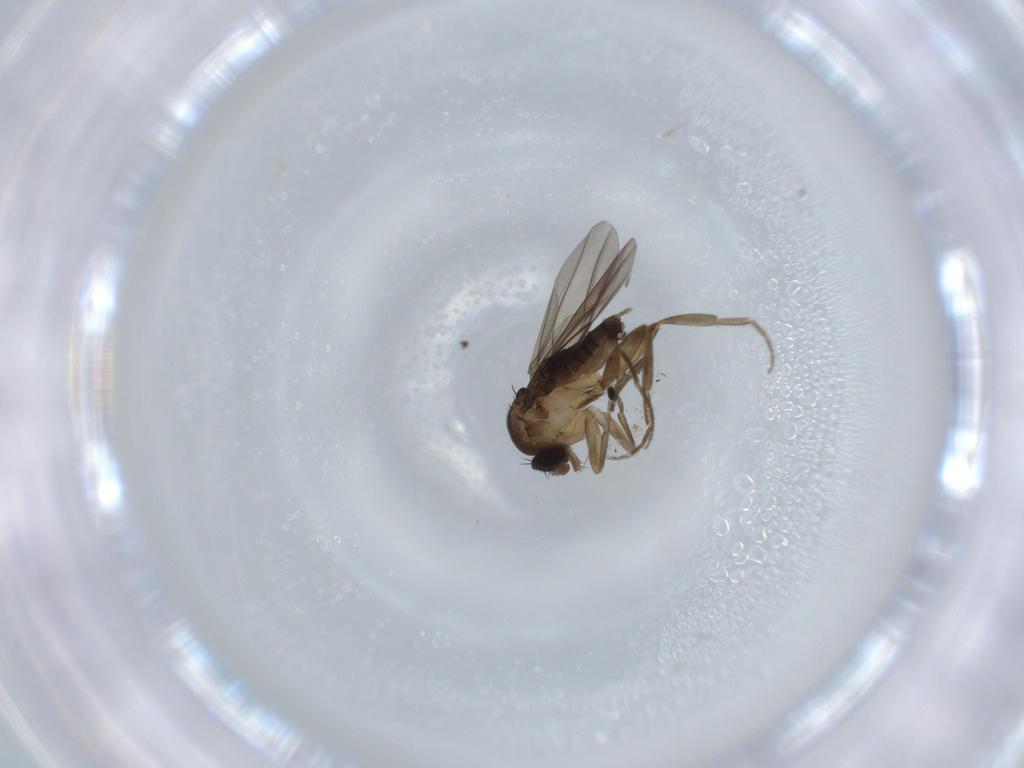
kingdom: Animalia
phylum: Arthropoda
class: Insecta
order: Diptera
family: Phoridae
